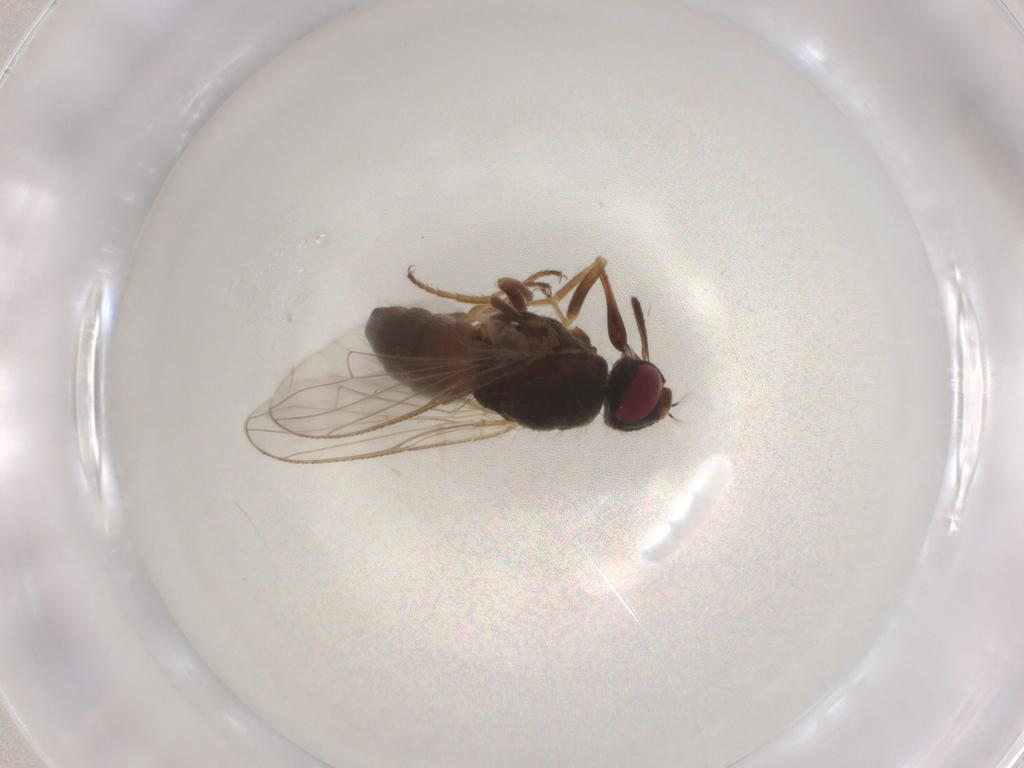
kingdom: Animalia
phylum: Arthropoda
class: Insecta
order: Diptera
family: Muscidae
